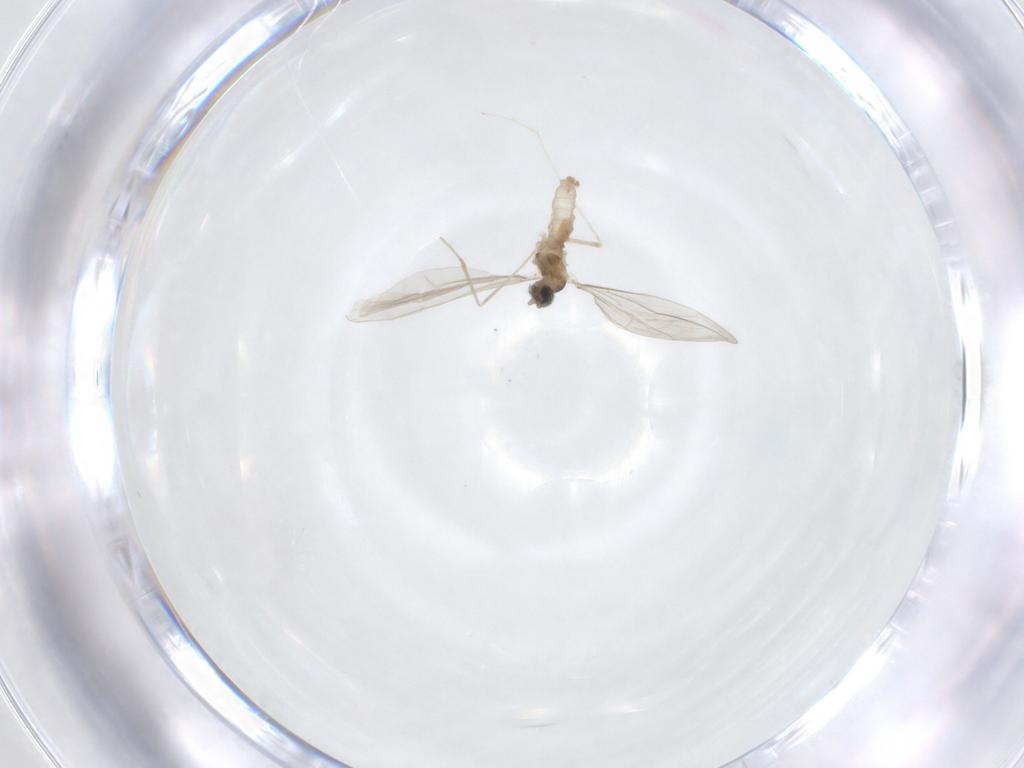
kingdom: Animalia
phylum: Arthropoda
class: Insecta
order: Diptera
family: Cecidomyiidae
